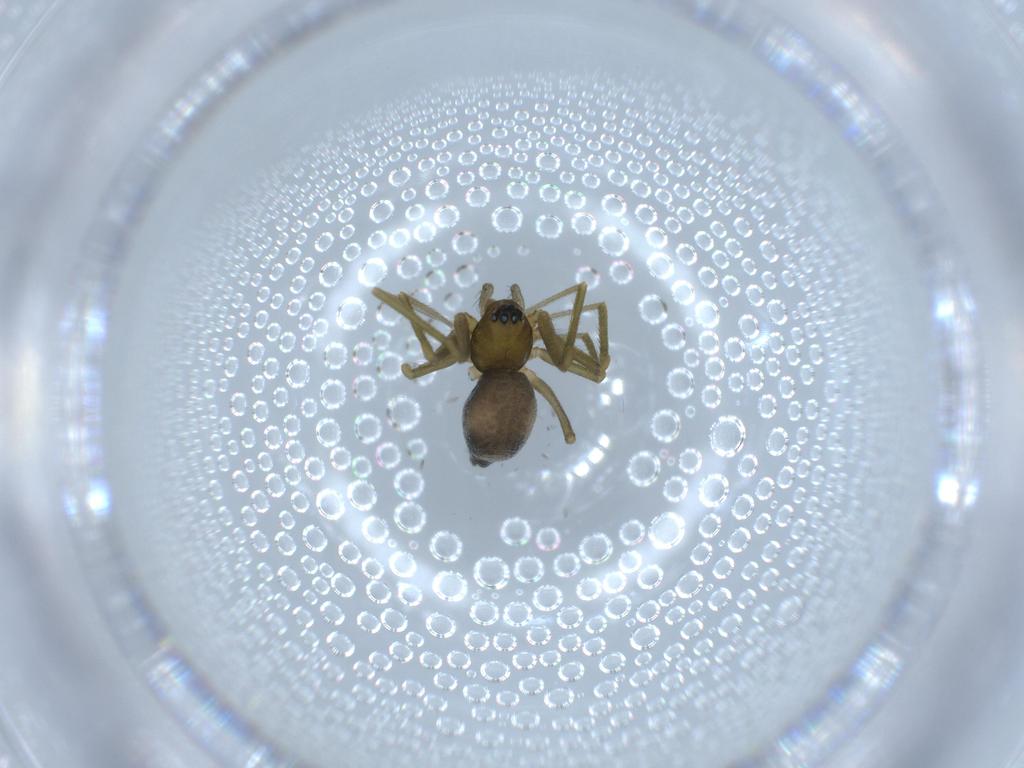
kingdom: Animalia
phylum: Arthropoda
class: Arachnida
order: Araneae
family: Linyphiidae
